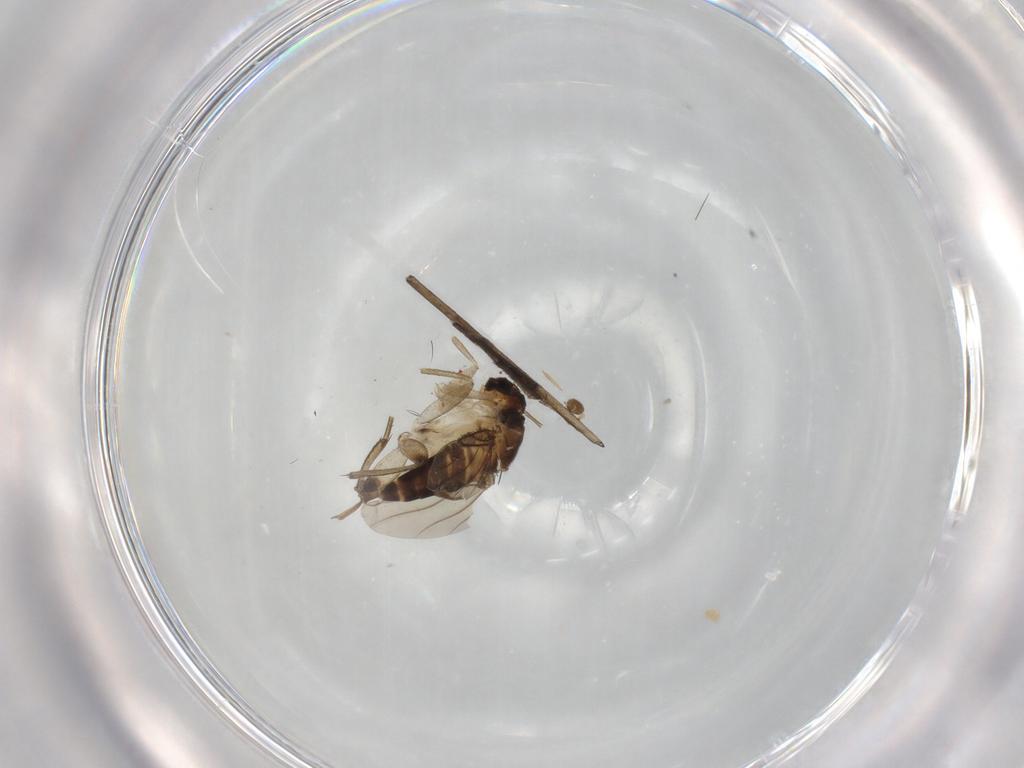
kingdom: Animalia
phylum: Arthropoda
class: Insecta
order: Diptera
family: Phoridae
